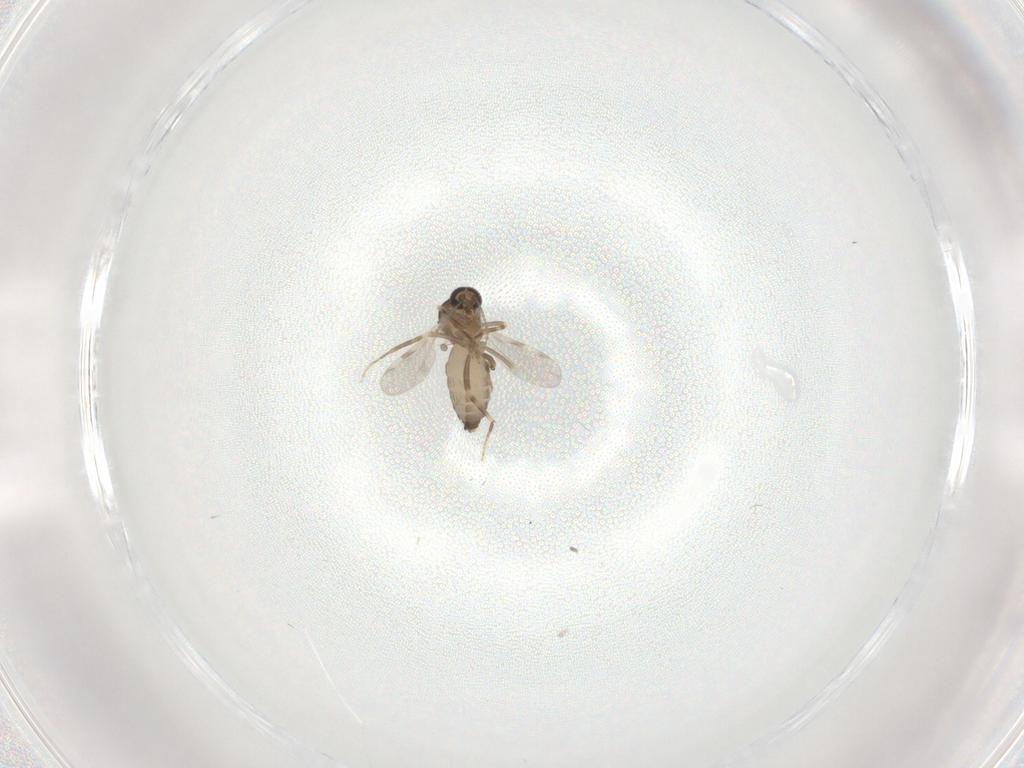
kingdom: Animalia
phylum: Arthropoda
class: Insecta
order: Diptera
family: Ceratopogonidae
